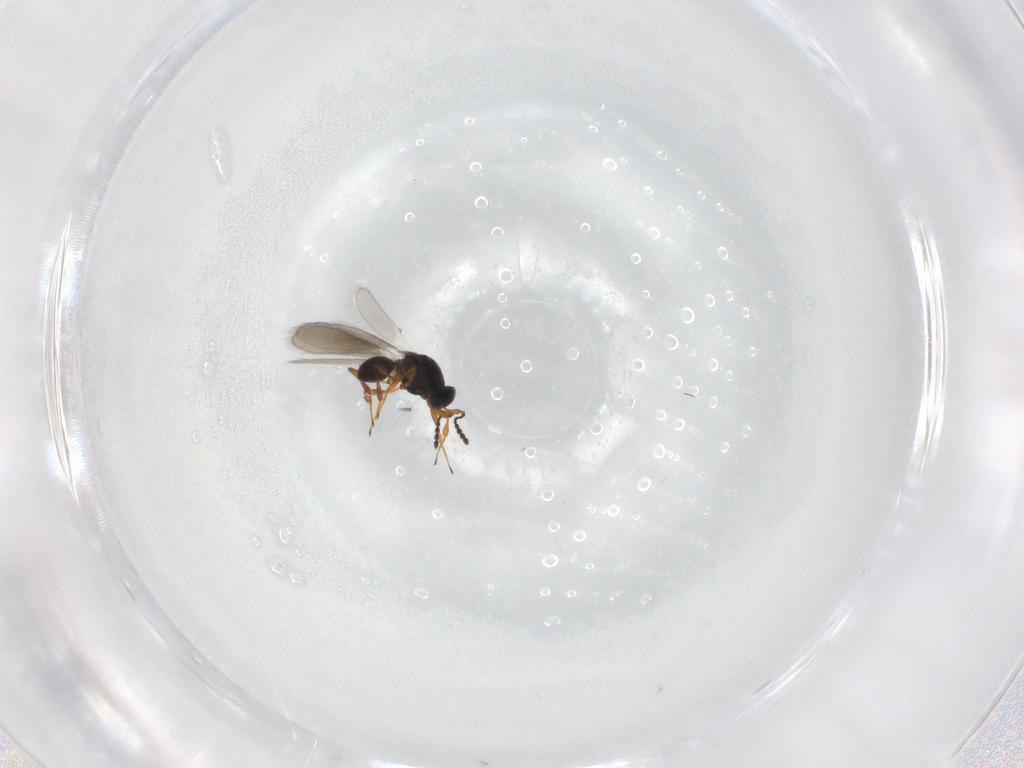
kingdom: Animalia
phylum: Arthropoda
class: Insecta
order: Hymenoptera
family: Platygastridae
